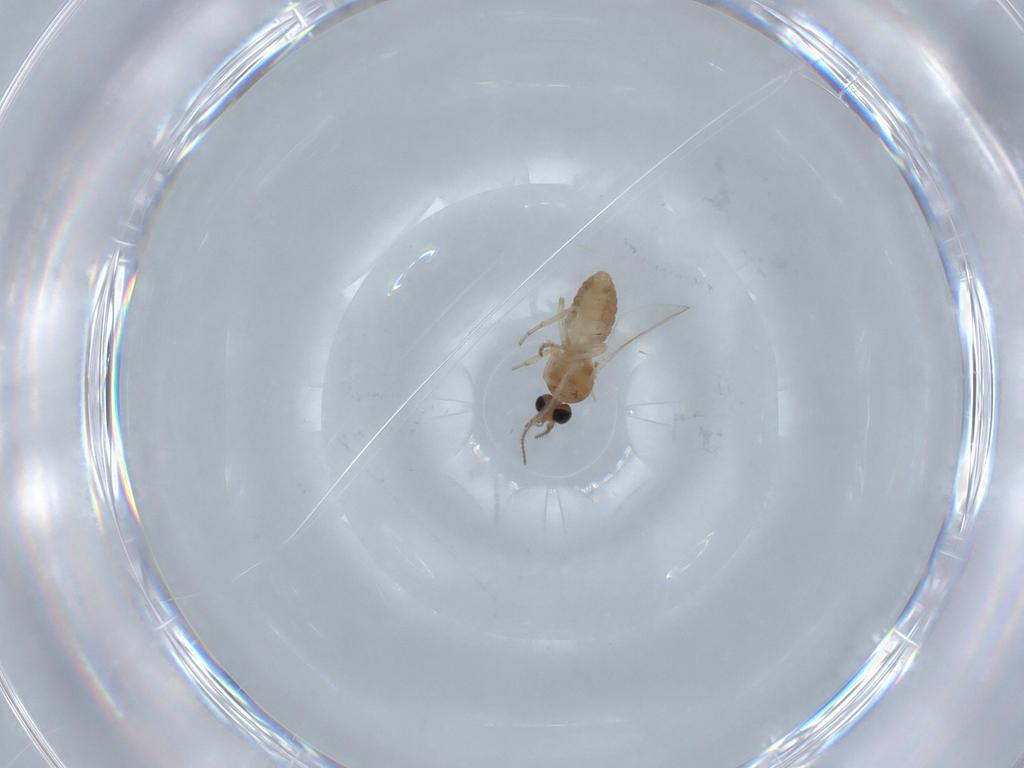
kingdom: Animalia
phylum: Arthropoda
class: Insecta
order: Diptera
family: Ceratopogonidae
